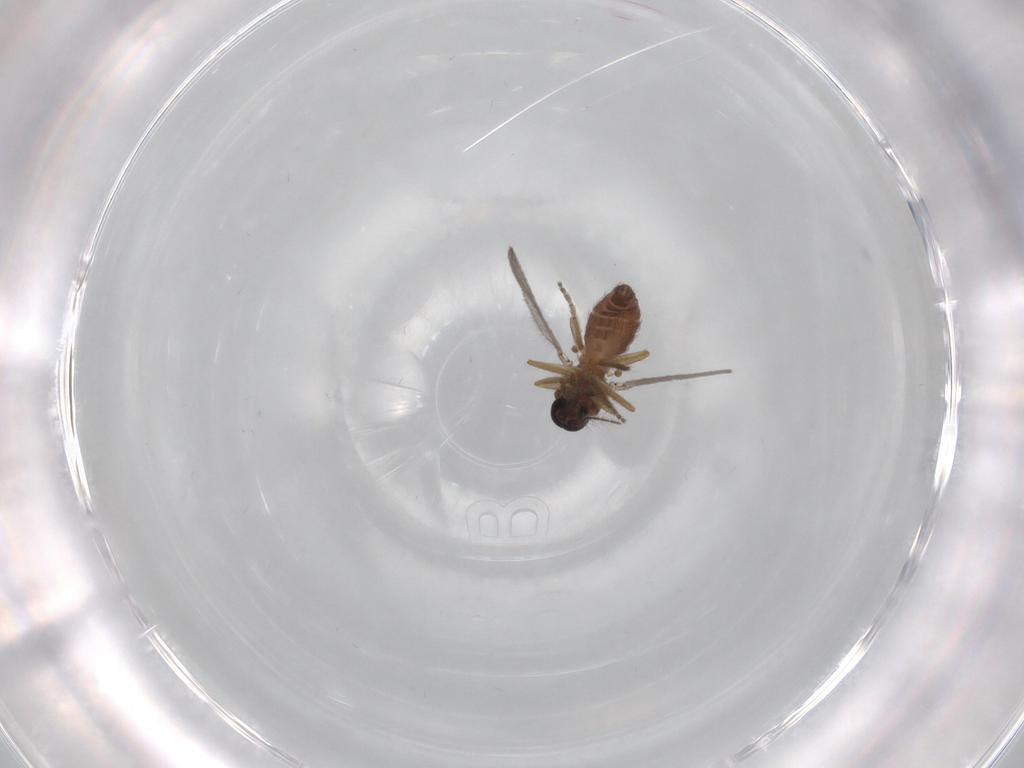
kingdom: Animalia
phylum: Arthropoda
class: Insecta
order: Diptera
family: Ceratopogonidae
